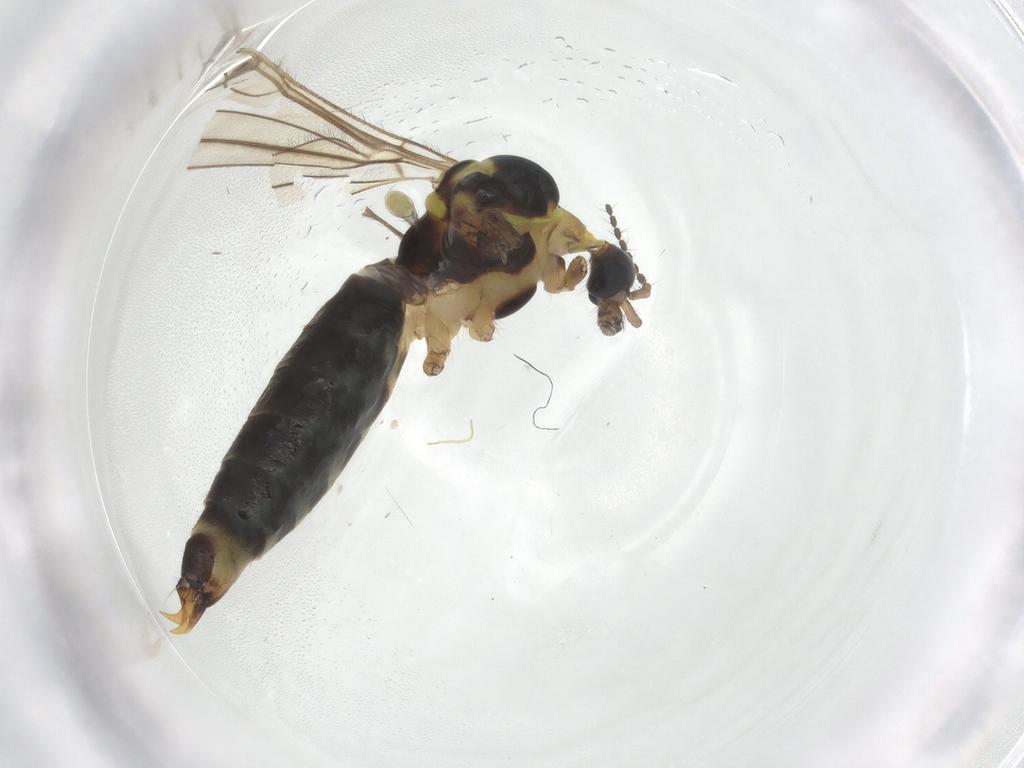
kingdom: Animalia
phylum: Arthropoda
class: Insecta
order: Diptera
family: Limoniidae
